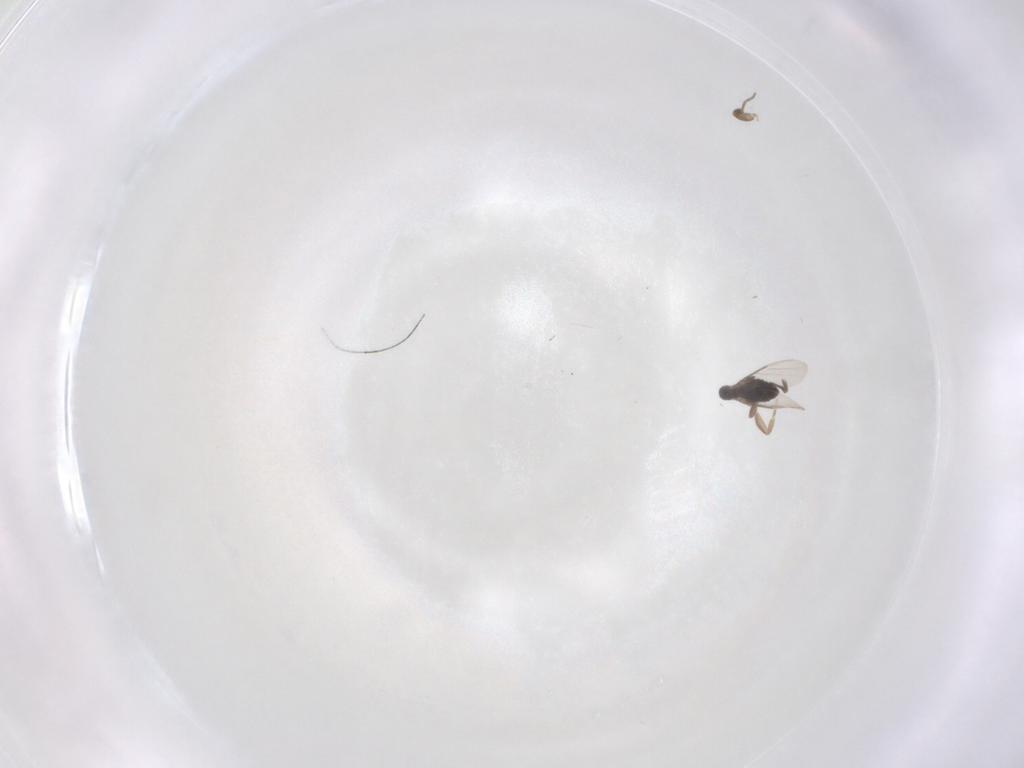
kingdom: Animalia
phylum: Arthropoda
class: Insecta
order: Diptera
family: Phoridae
